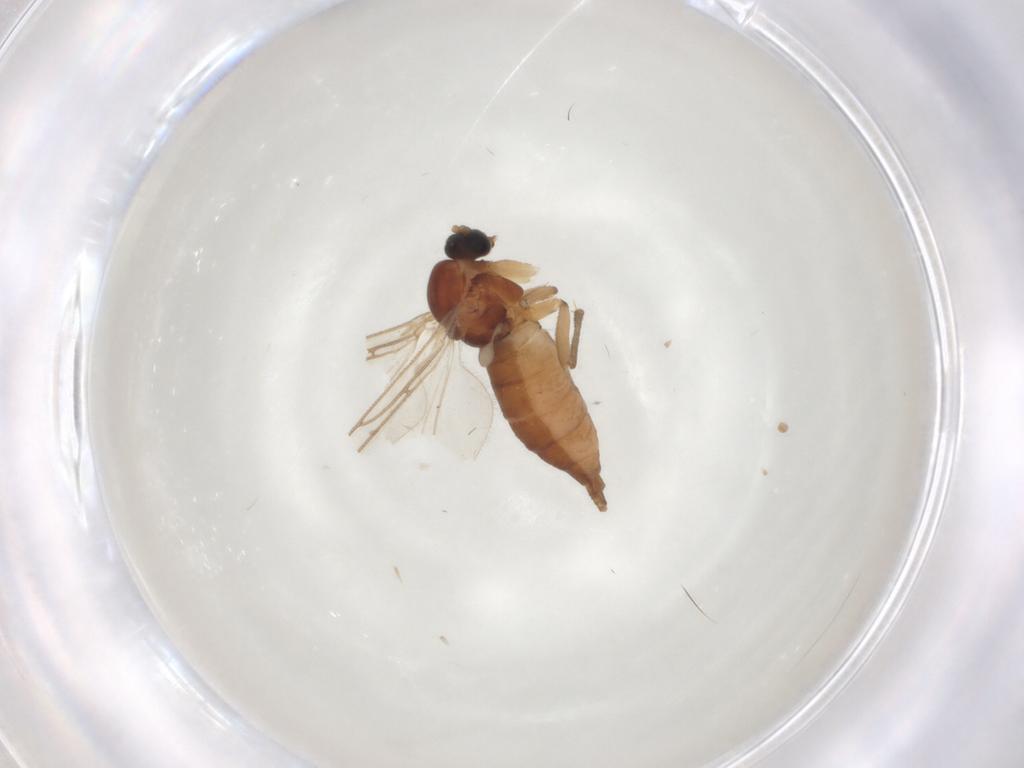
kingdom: Animalia
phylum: Arthropoda
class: Insecta
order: Diptera
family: Sciaridae
